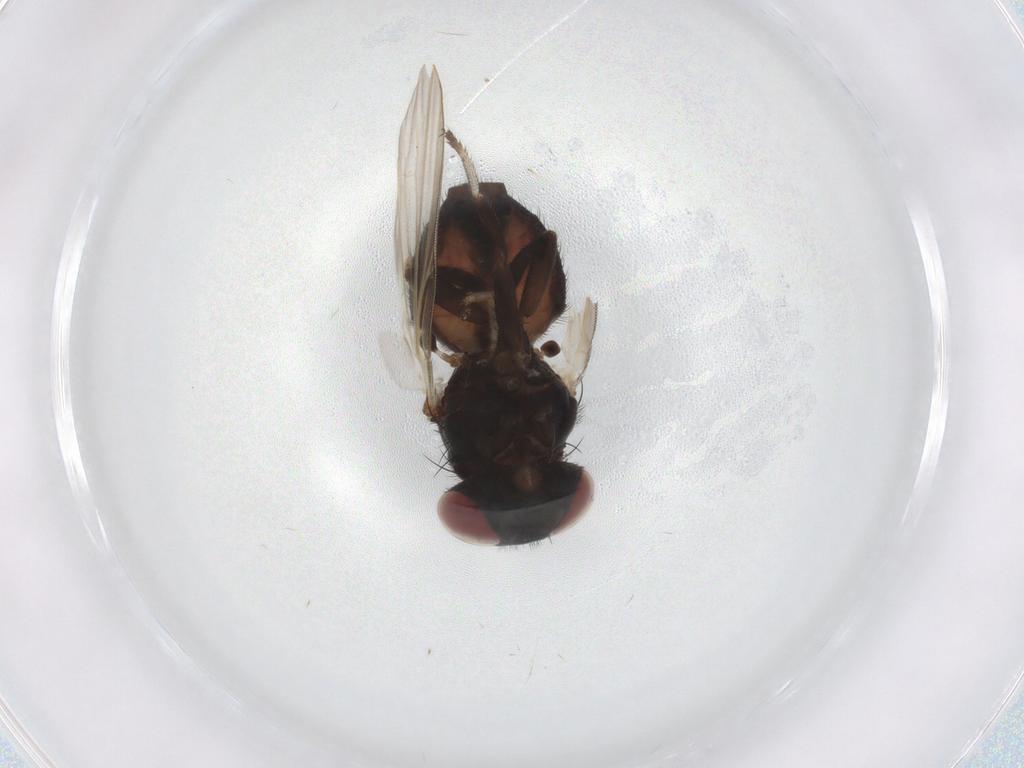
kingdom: Animalia
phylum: Arthropoda
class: Insecta
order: Diptera
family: Lonchaeidae
